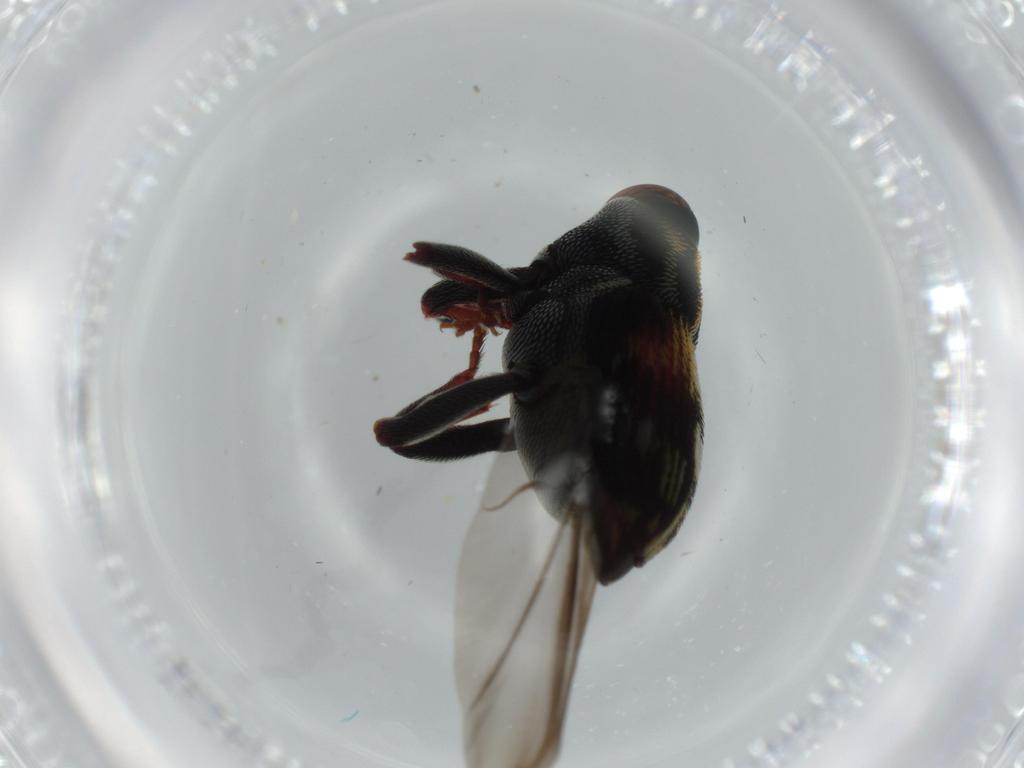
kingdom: Animalia
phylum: Arthropoda
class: Insecta
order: Coleoptera
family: Curculionidae
